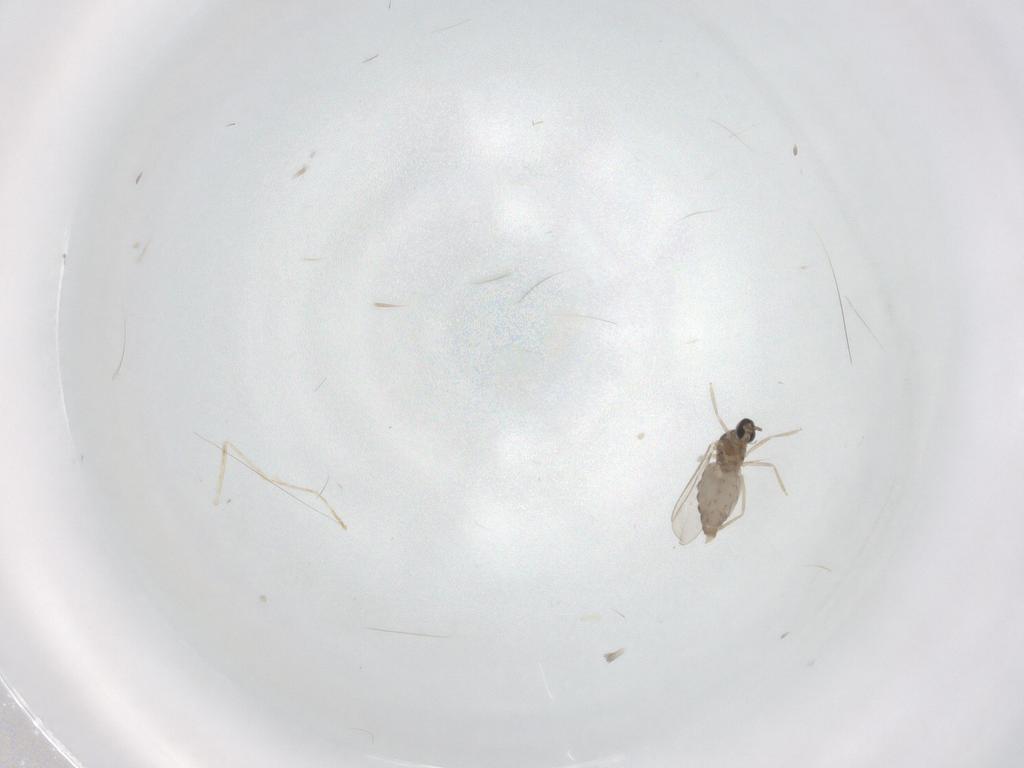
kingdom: Animalia
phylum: Arthropoda
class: Insecta
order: Diptera
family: Cecidomyiidae
